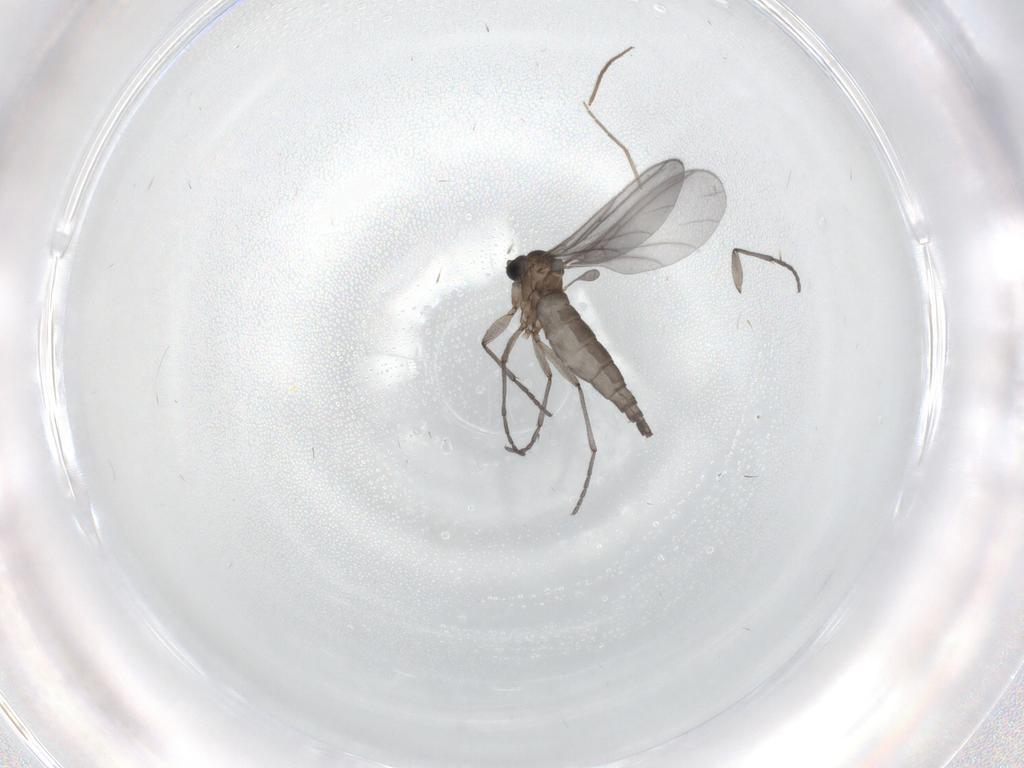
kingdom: Animalia
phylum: Arthropoda
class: Insecta
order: Diptera
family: Sciaridae
